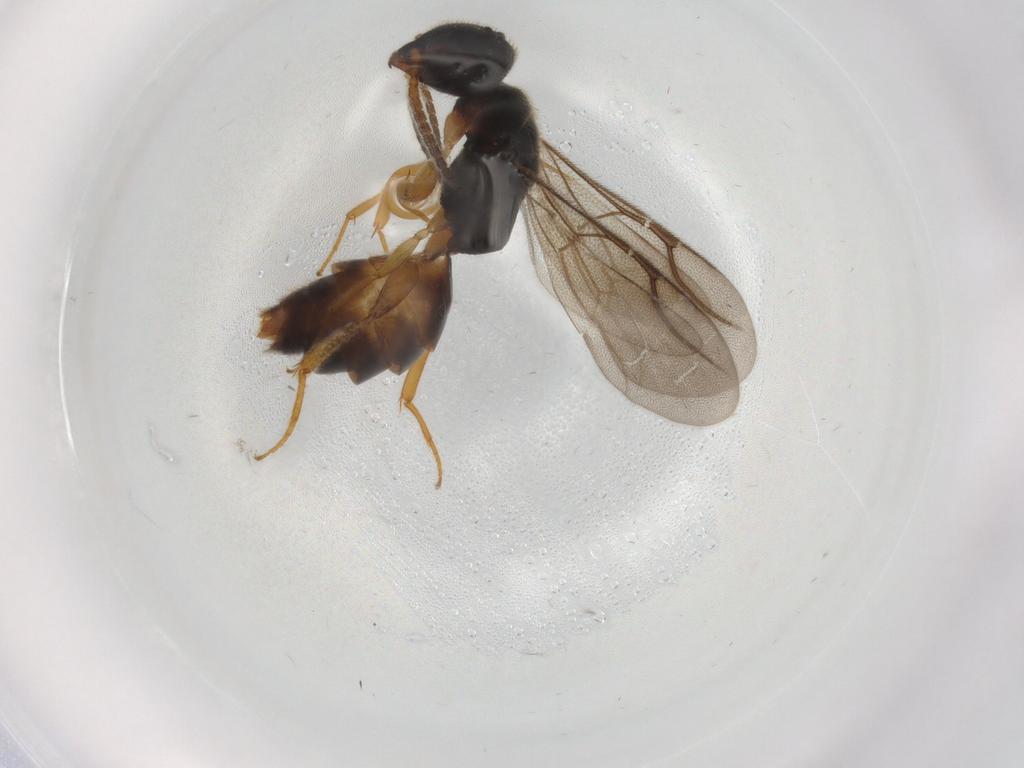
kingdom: Animalia
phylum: Arthropoda
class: Insecta
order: Hymenoptera
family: Bethylidae
